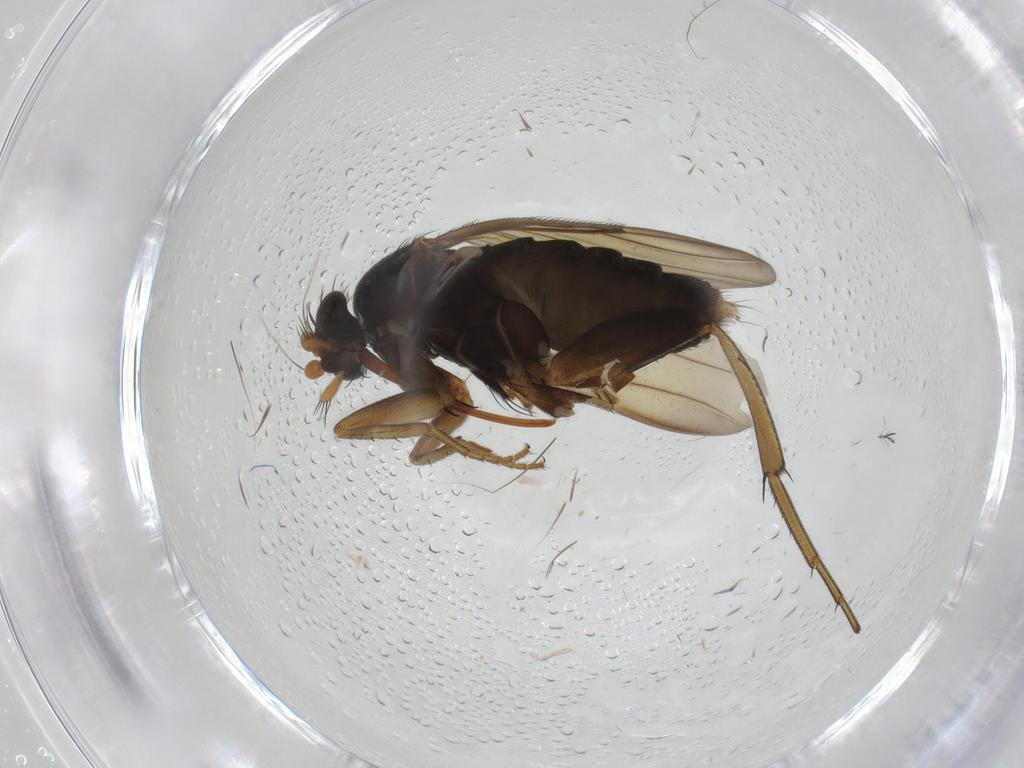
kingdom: Animalia
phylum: Arthropoda
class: Insecta
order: Diptera
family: Phoridae
